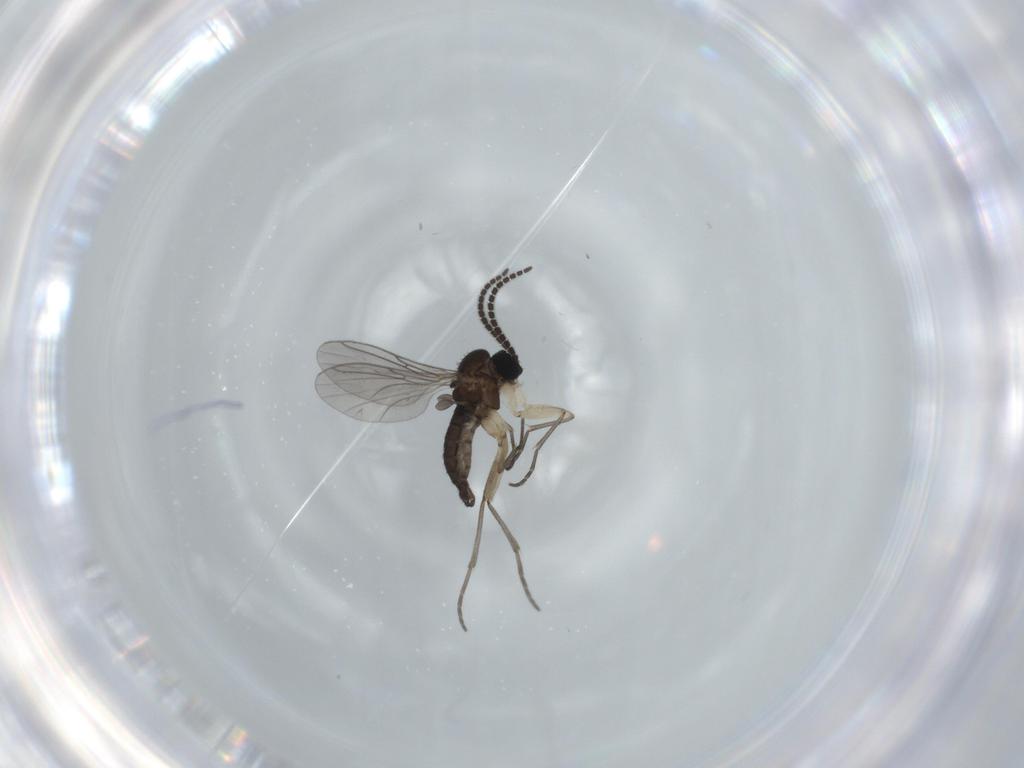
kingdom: Animalia
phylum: Arthropoda
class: Insecta
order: Diptera
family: Sciaridae
